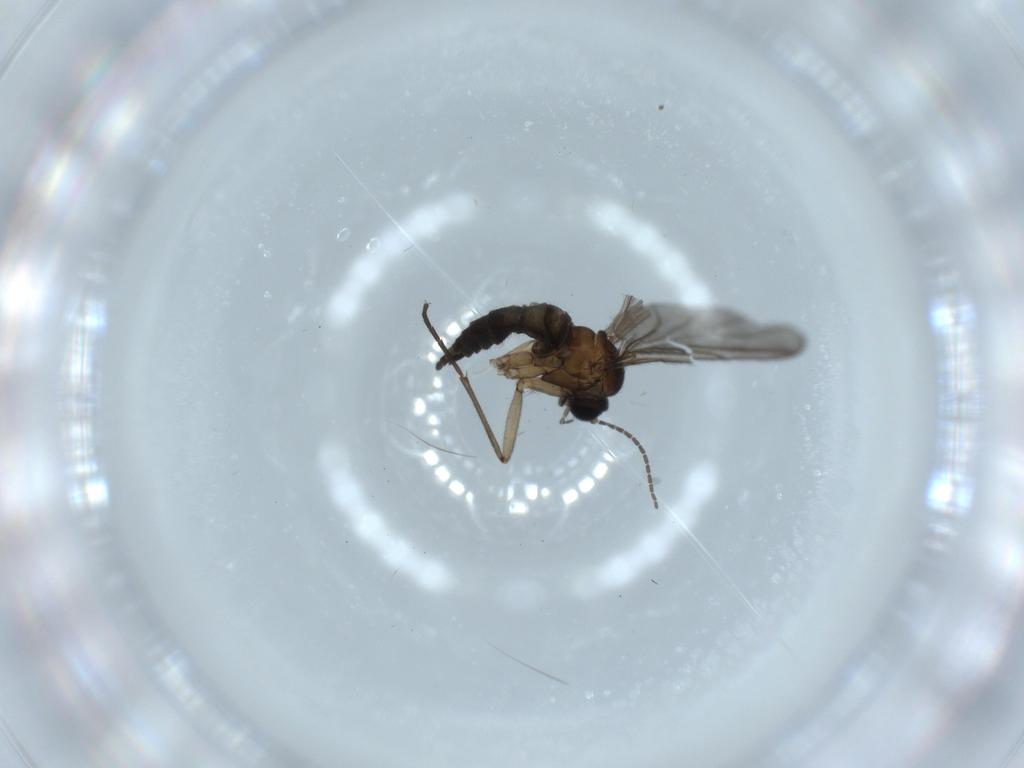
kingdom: Animalia
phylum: Arthropoda
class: Insecta
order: Diptera
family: Sciaridae
